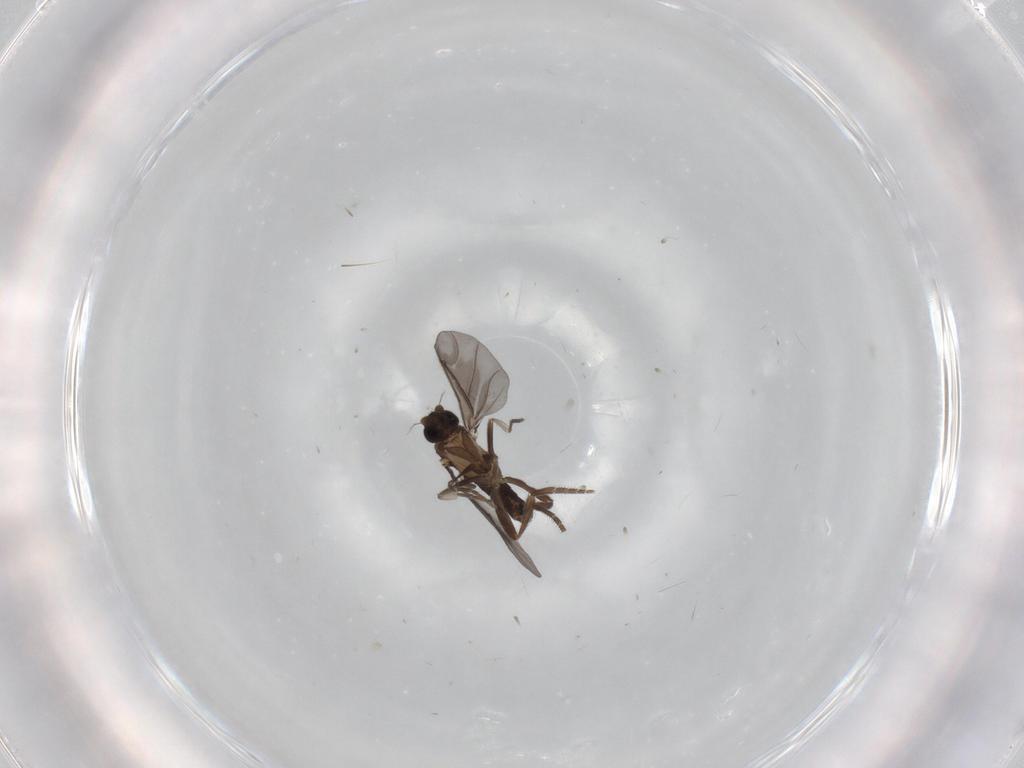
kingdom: Animalia
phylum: Arthropoda
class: Insecta
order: Diptera
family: Phoridae
